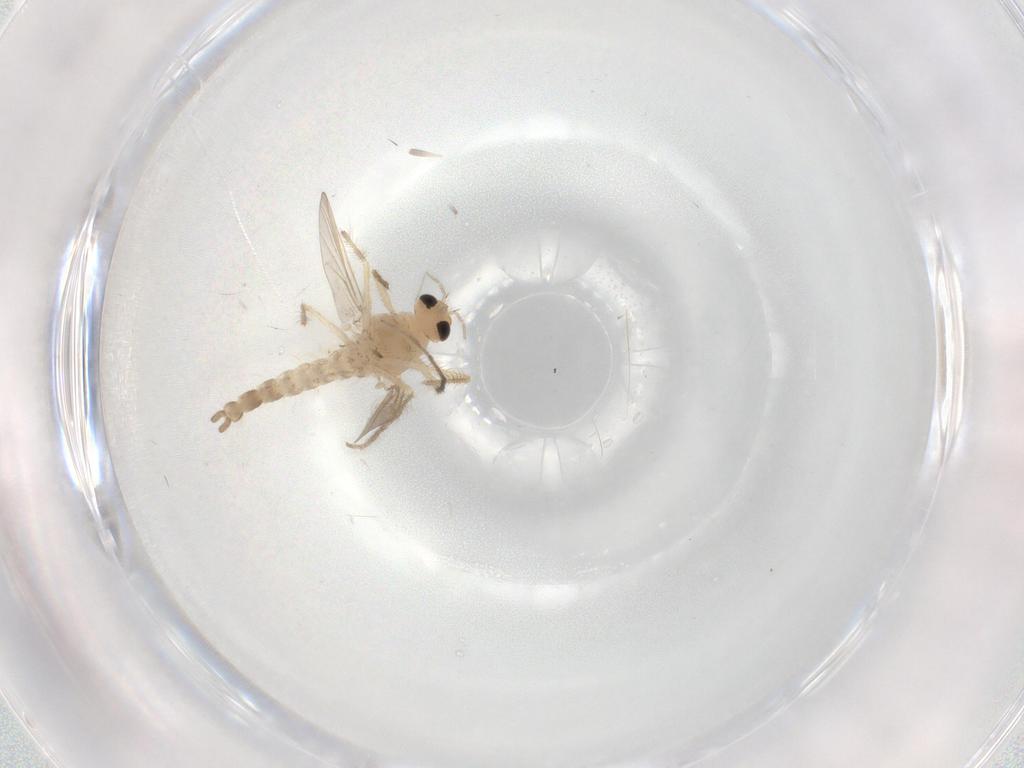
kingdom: Animalia
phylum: Arthropoda
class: Insecta
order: Diptera
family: Chironomidae
